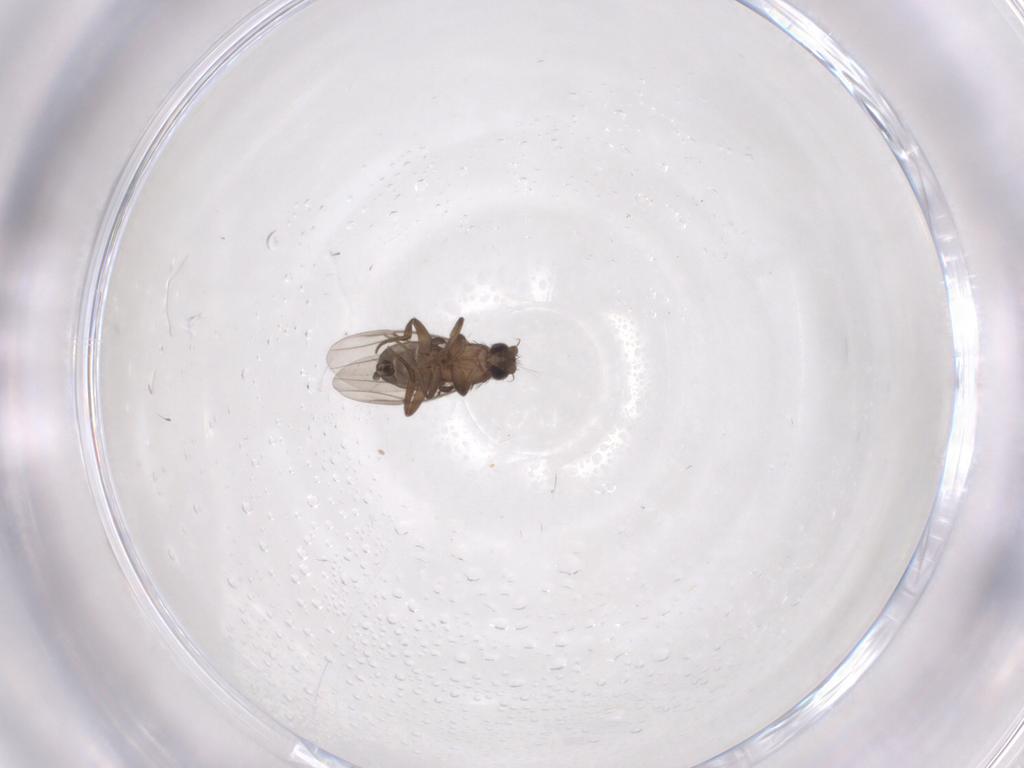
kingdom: Animalia
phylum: Arthropoda
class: Insecta
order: Diptera
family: Phoridae
